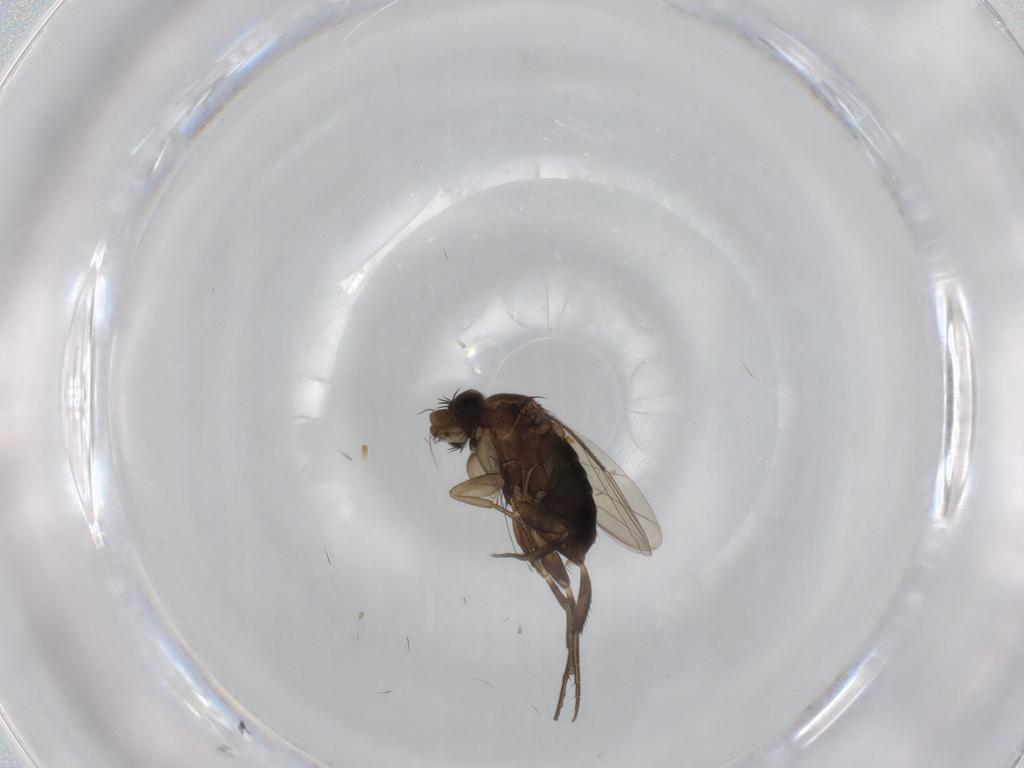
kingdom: Animalia
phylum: Arthropoda
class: Insecta
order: Diptera
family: Phoridae
